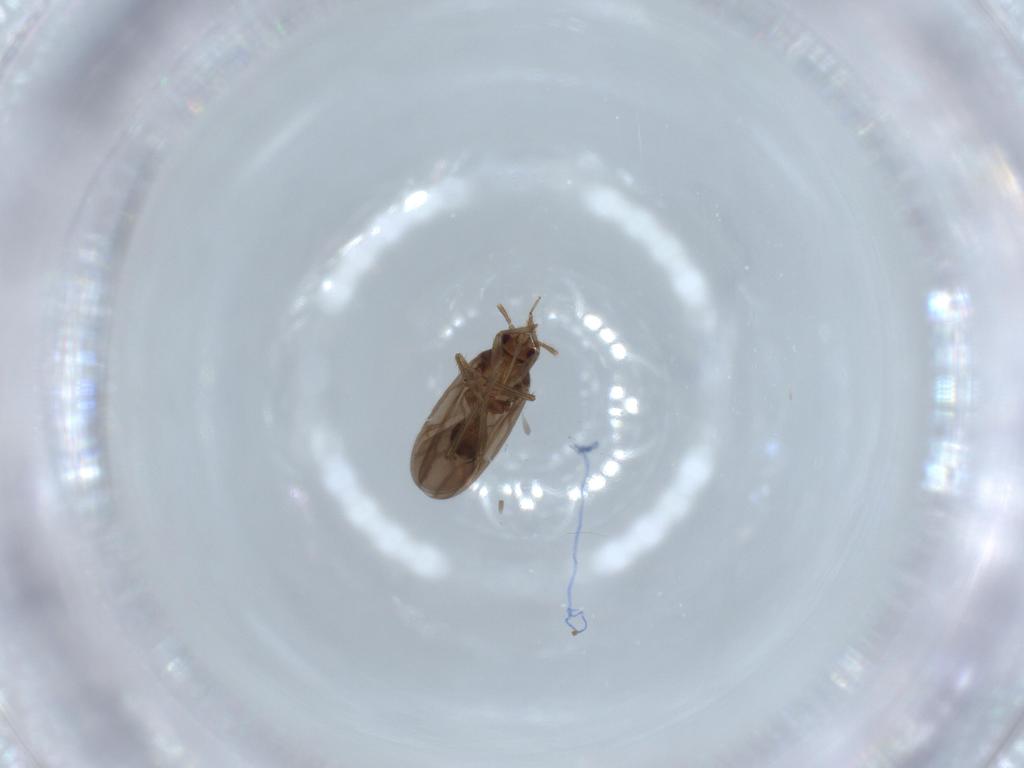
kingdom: Animalia
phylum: Arthropoda
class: Insecta
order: Hemiptera
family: Ceratocombidae
